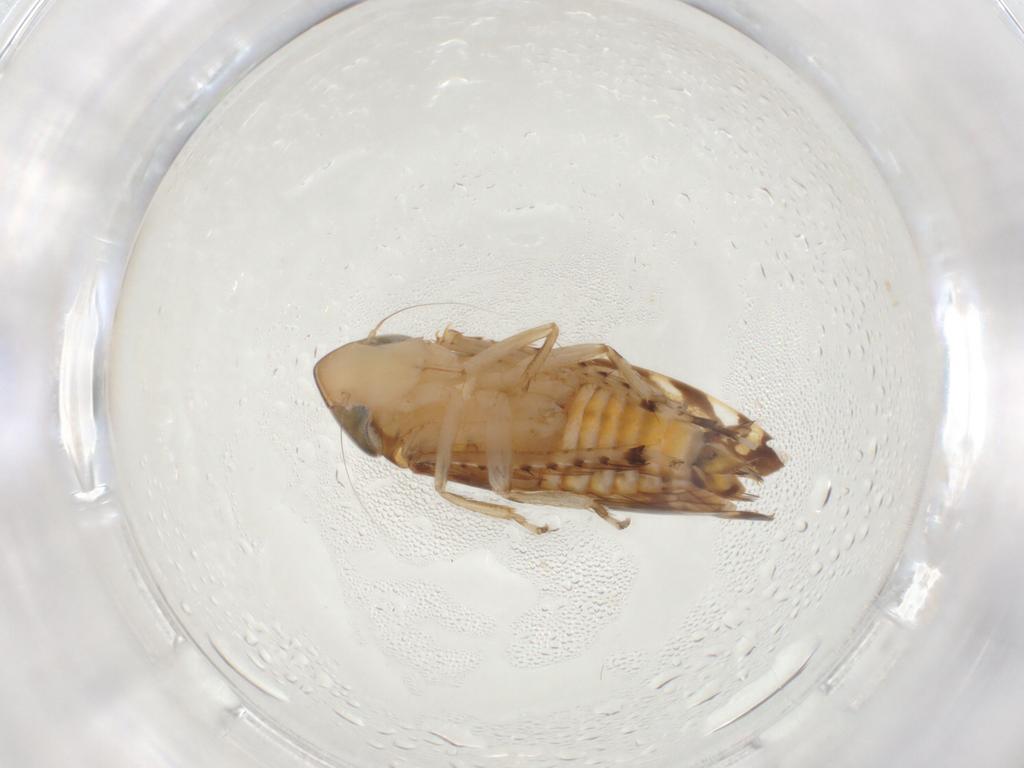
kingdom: Animalia
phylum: Arthropoda
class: Insecta
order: Hemiptera
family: Cicadellidae
